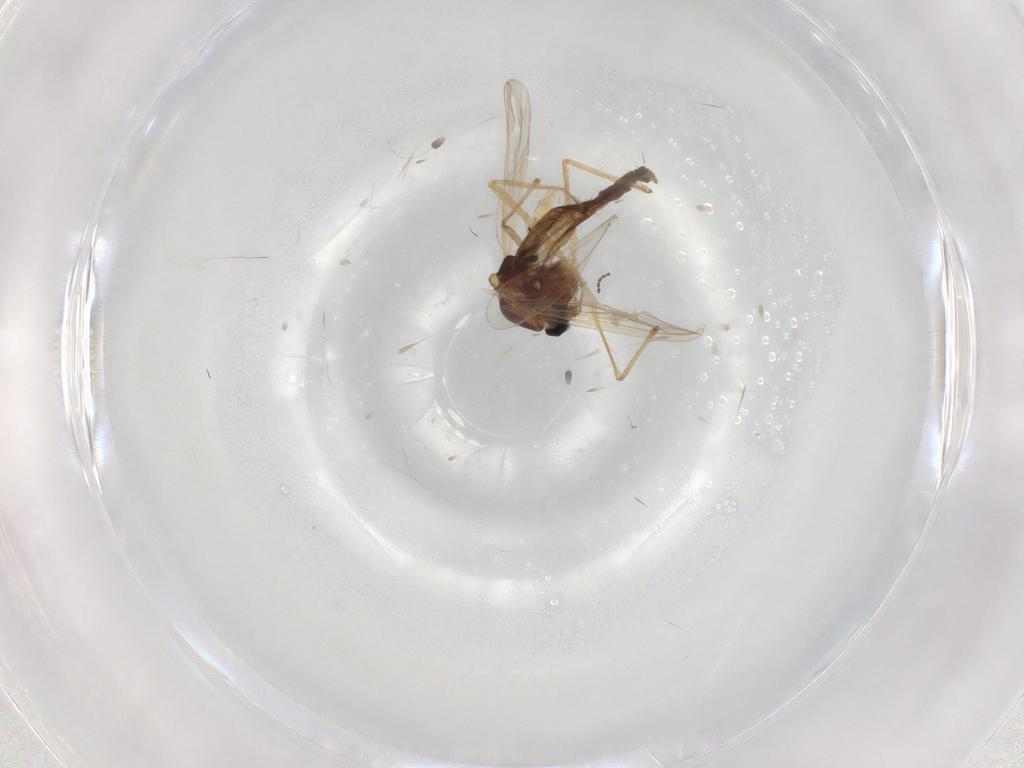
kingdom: Animalia
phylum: Arthropoda
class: Insecta
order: Diptera
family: Chironomidae
